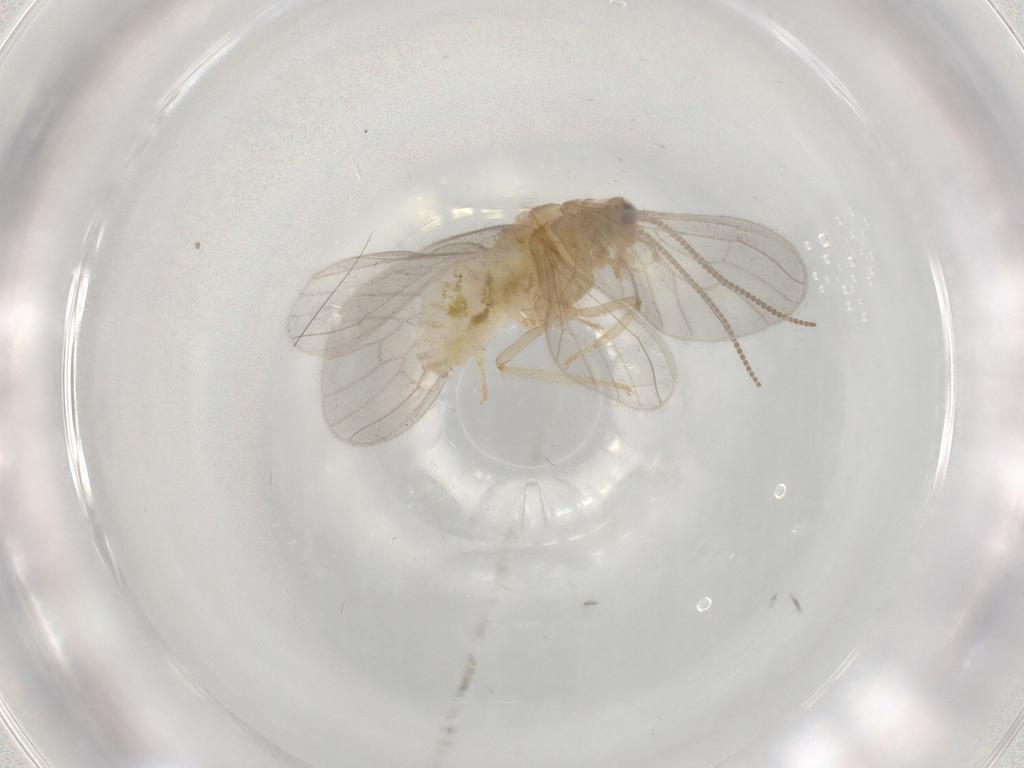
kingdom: Animalia
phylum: Arthropoda
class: Insecta
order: Neuroptera
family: Coniopterygidae
